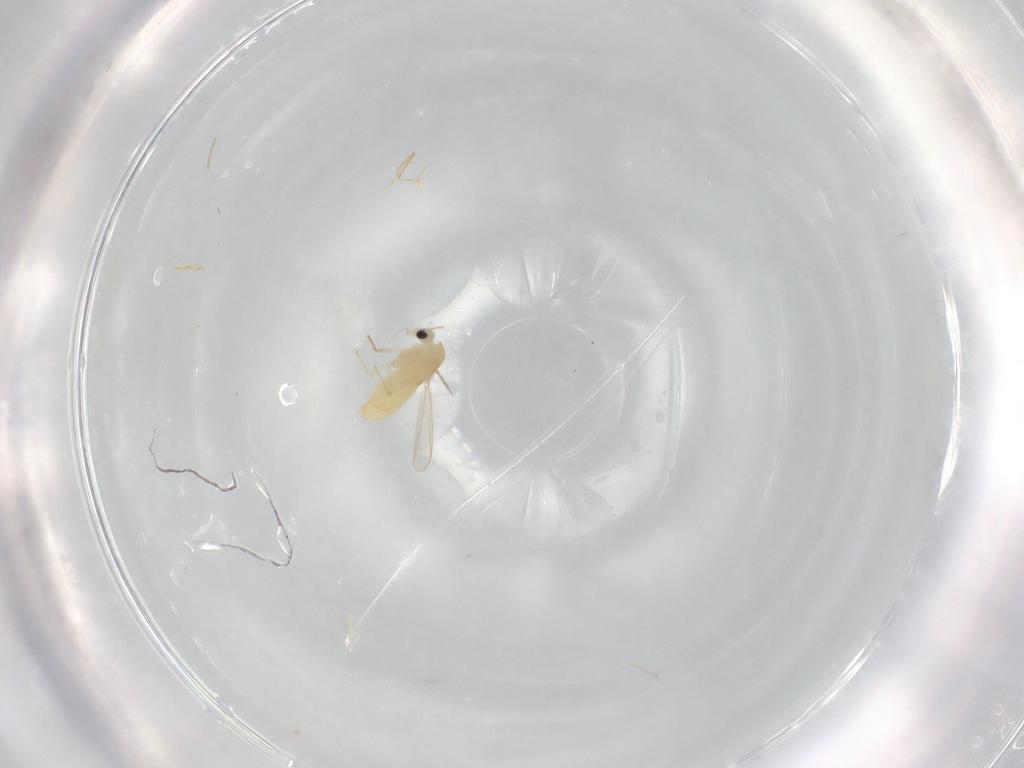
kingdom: Animalia
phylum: Arthropoda
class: Insecta
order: Diptera
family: Chironomidae
